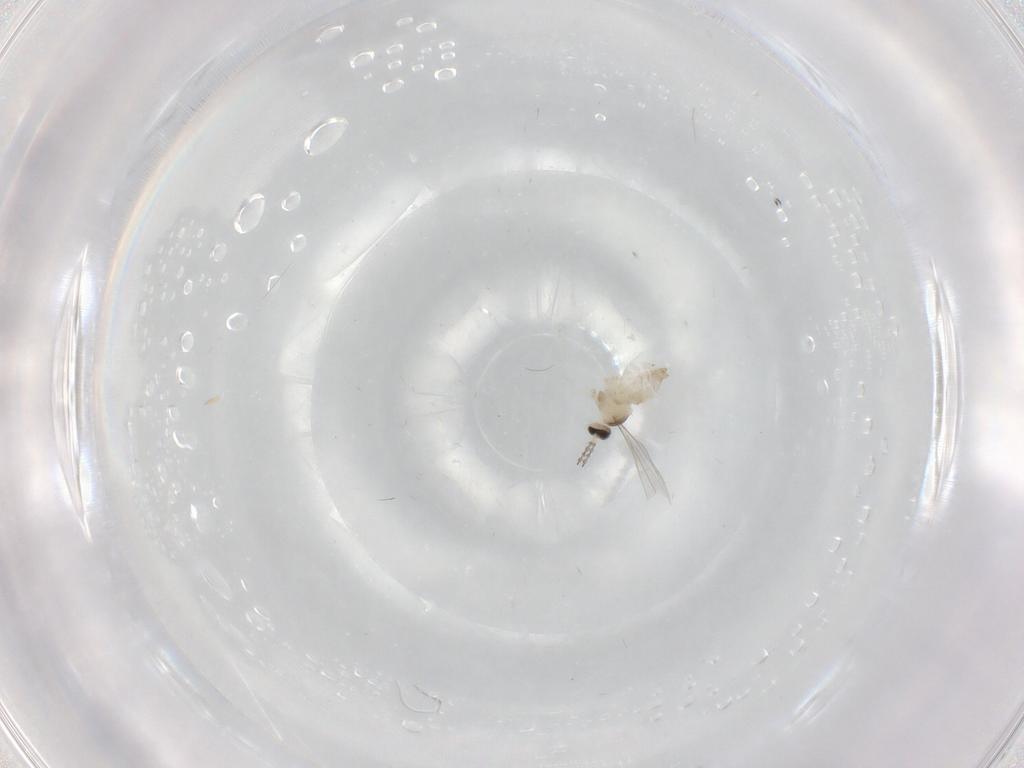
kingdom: Animalia
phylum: Arthropoda
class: Insecta
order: Diptera
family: Cecidomyiidae
